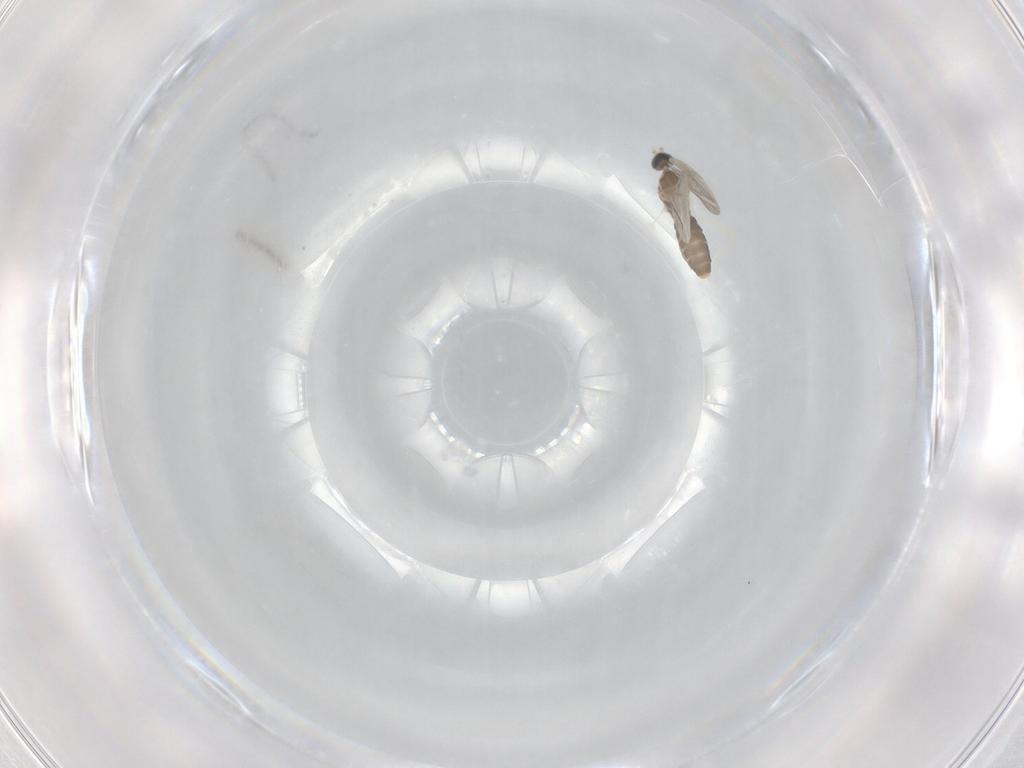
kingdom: Animalia
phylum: Arthropoda
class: Insecta
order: Diptera
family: Cecidomyiidae
